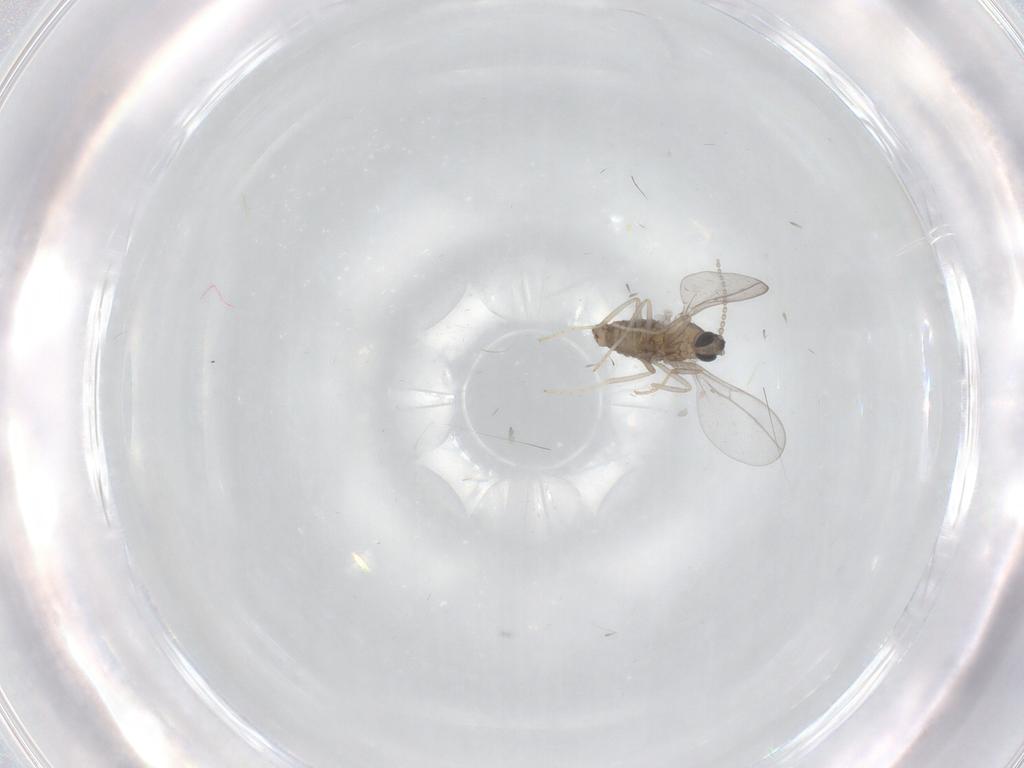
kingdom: Animalia
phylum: Arthropoda
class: Insecta
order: Diptera
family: Cecidomyiidae
